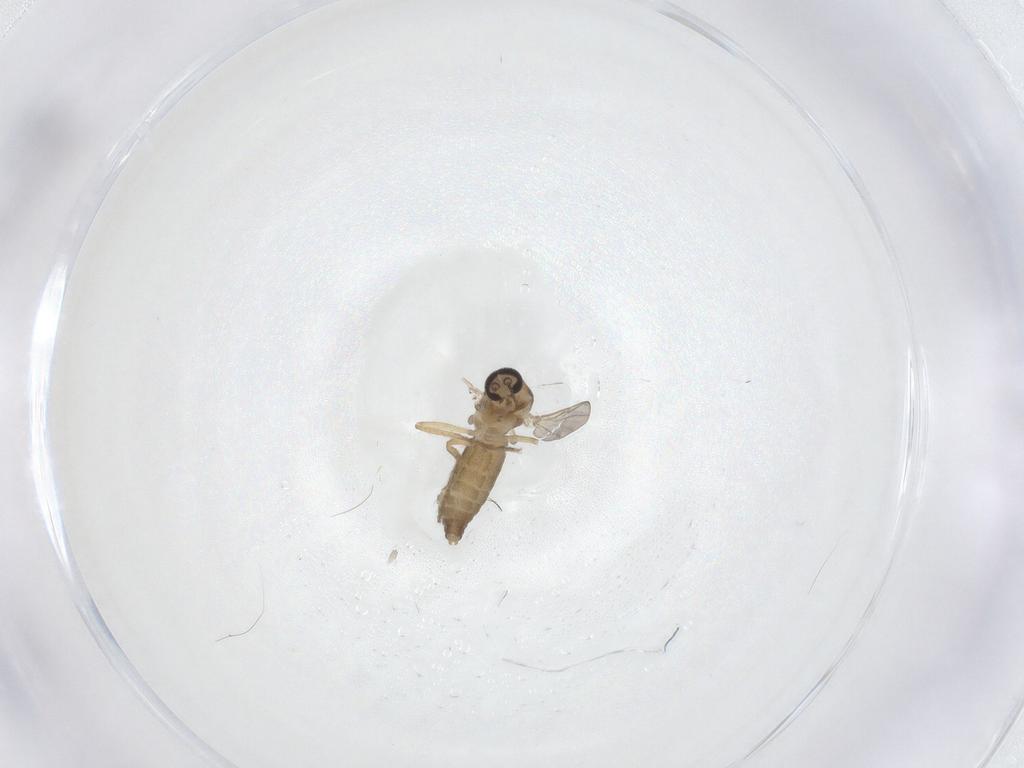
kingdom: Animalia
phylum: Arthropoda
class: Insecta
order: Diptera
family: Ceratopogonidae
